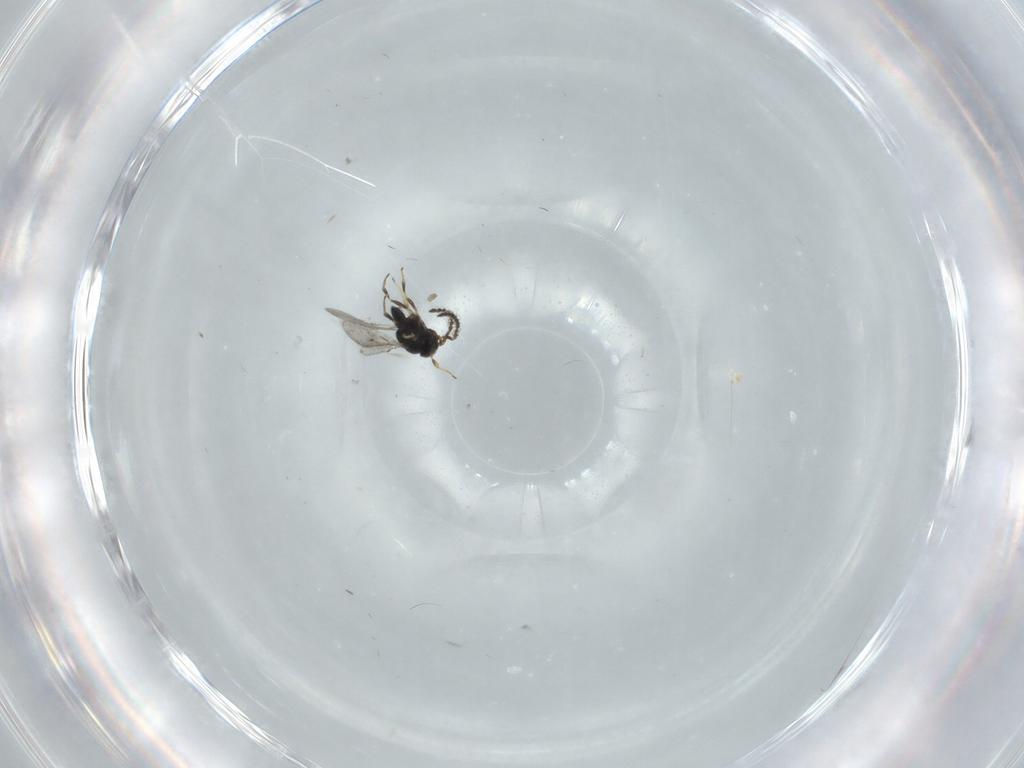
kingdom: Animalia
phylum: Arthropoda
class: Insecta
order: Hymenoptera
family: Scelionidae
